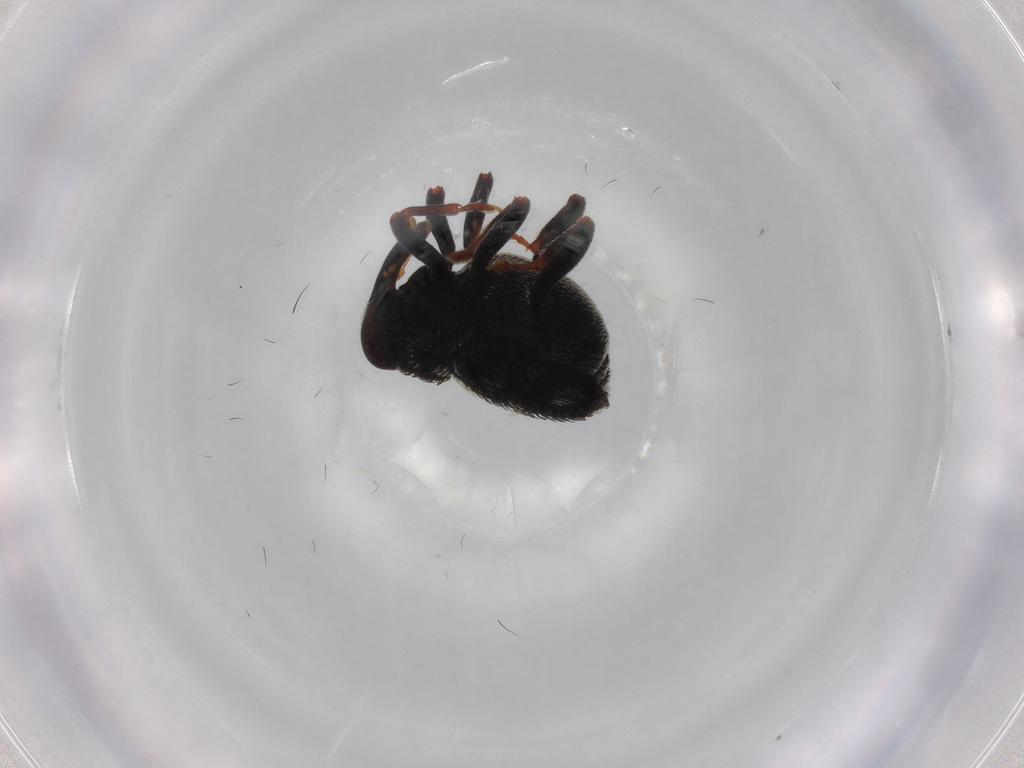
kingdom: Animalia
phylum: Arthropoda
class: Insecta
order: Coleoptera
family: Curculionidae
